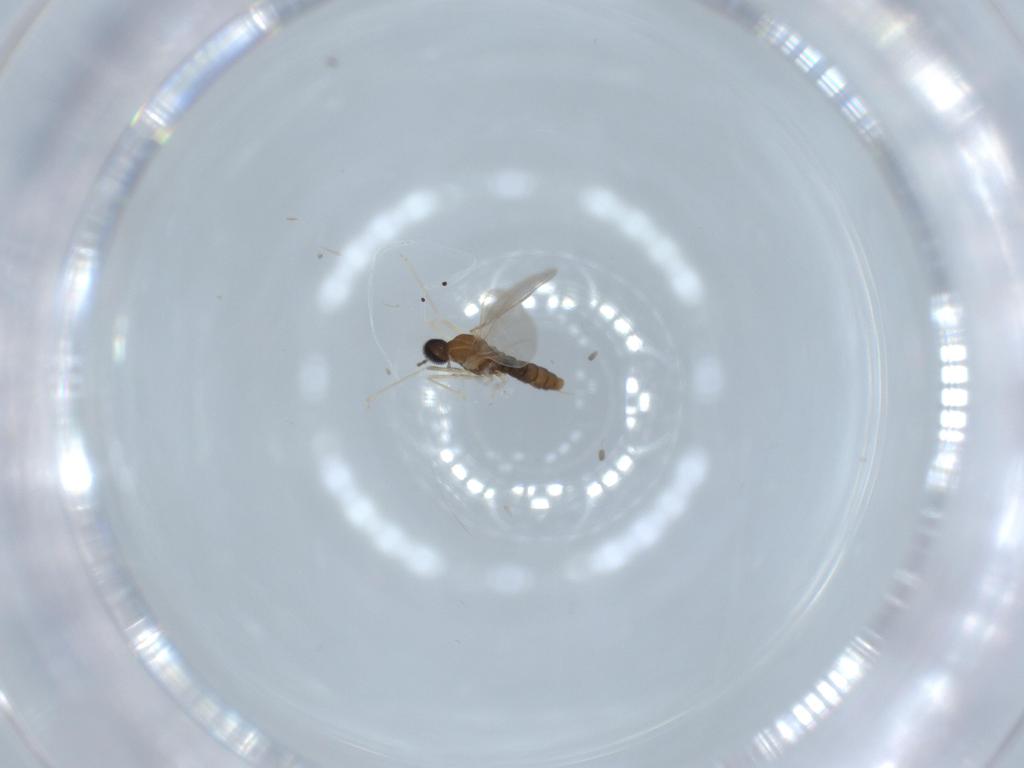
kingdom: Animalia
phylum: Arthropoda
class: Insecta
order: Diptera
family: Cecidomyiidae
